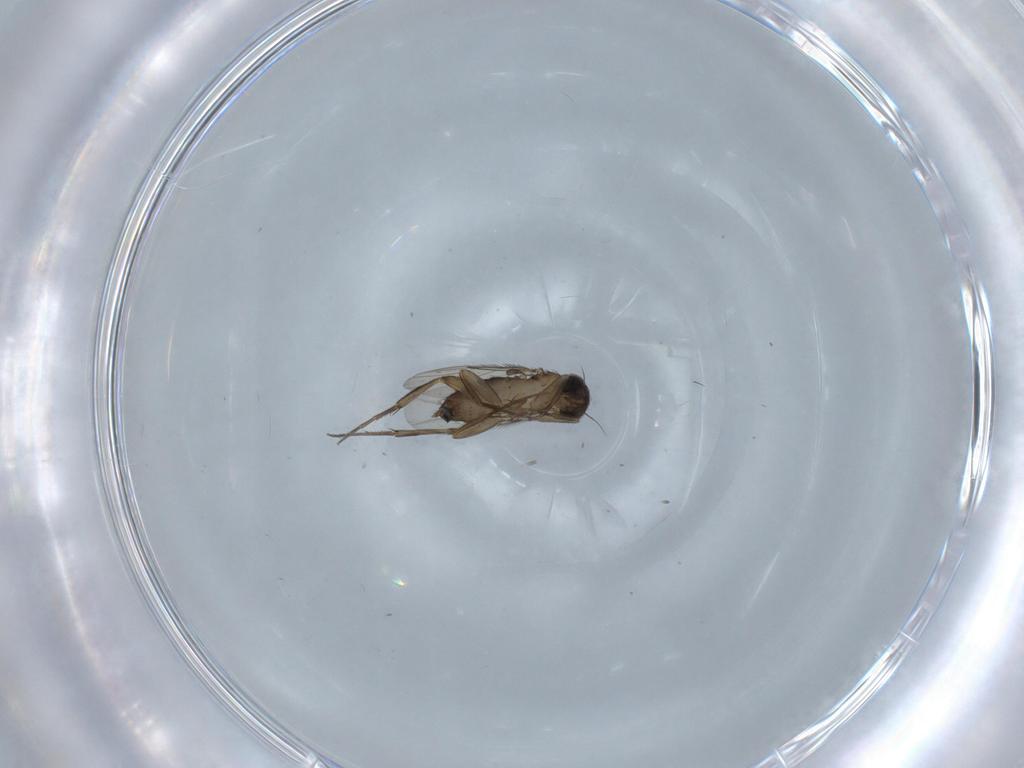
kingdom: Animalia
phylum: Arthropoda
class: Insecta
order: Diptera
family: Phoridae
